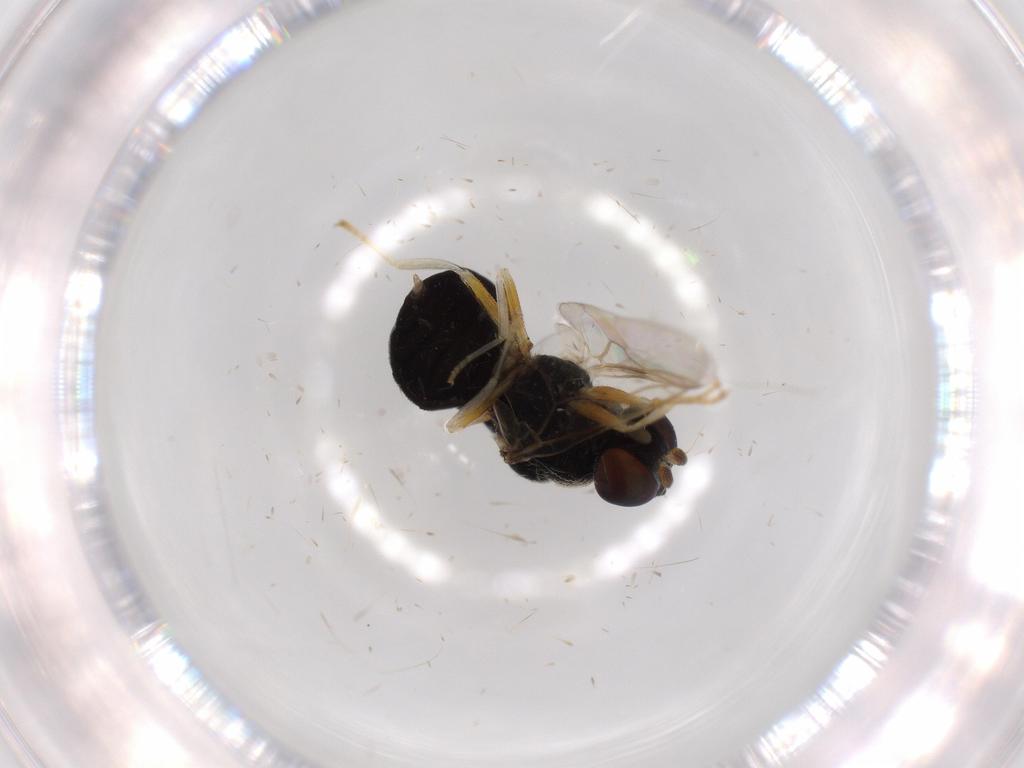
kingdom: Animalia
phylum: Arthropoda
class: Insecta
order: Diptera
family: Stratiomyidae
